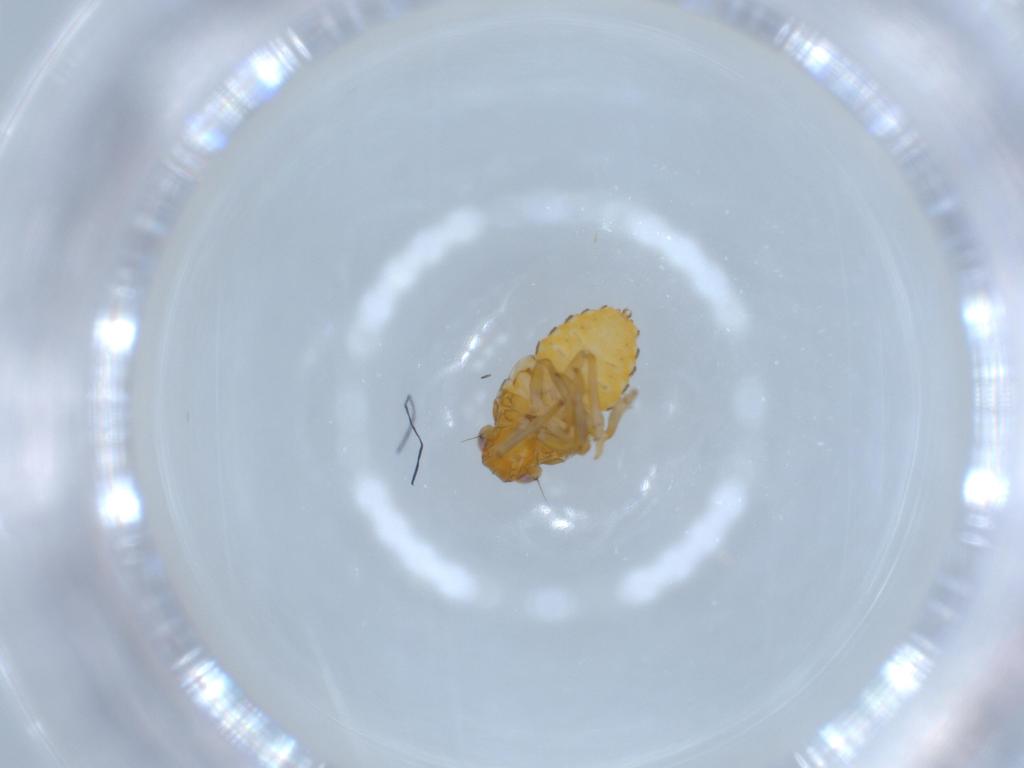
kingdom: Animalia
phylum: Arthropoda
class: Insecta
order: Hemiptera
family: Issidae
